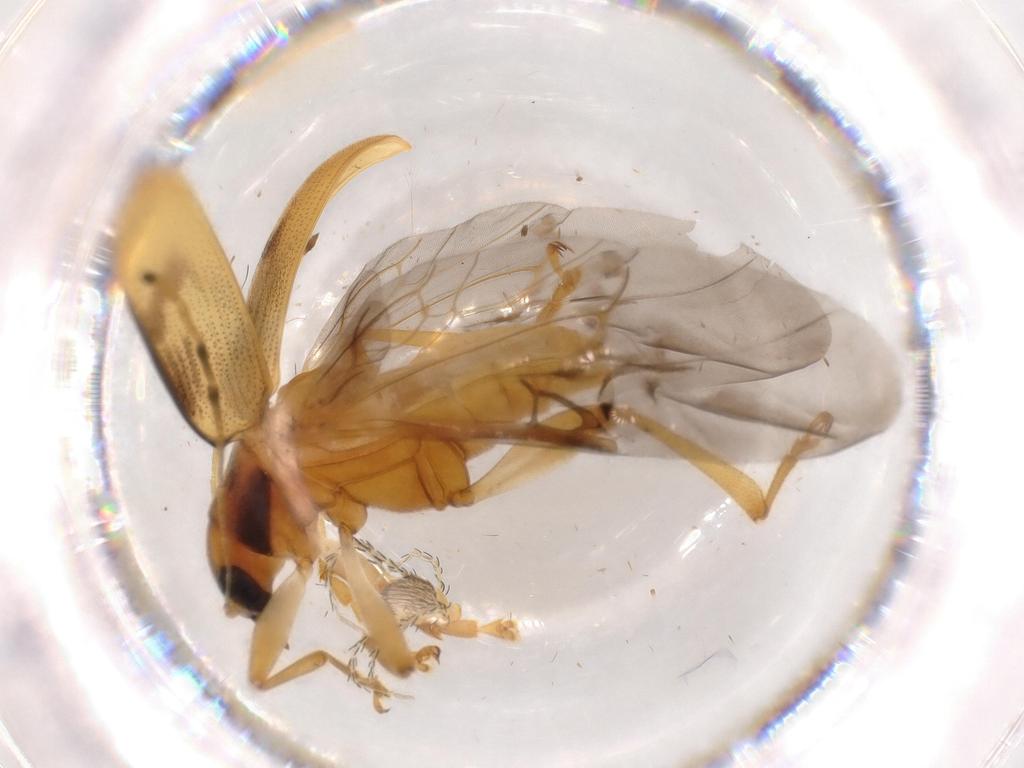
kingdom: Animalia
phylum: Arthropoda
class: Insecta
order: Coleoptera
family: Chrysomelidae
